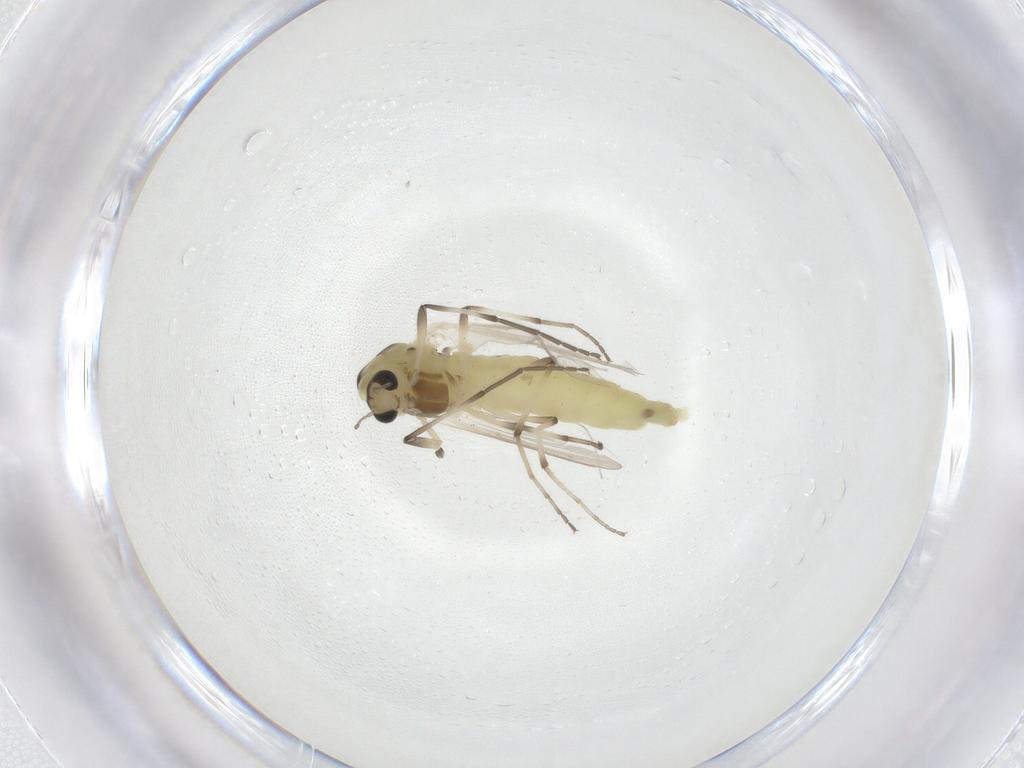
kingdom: Animalia
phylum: Arthropoda
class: Insecta
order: Diptera
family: Chironomidae
